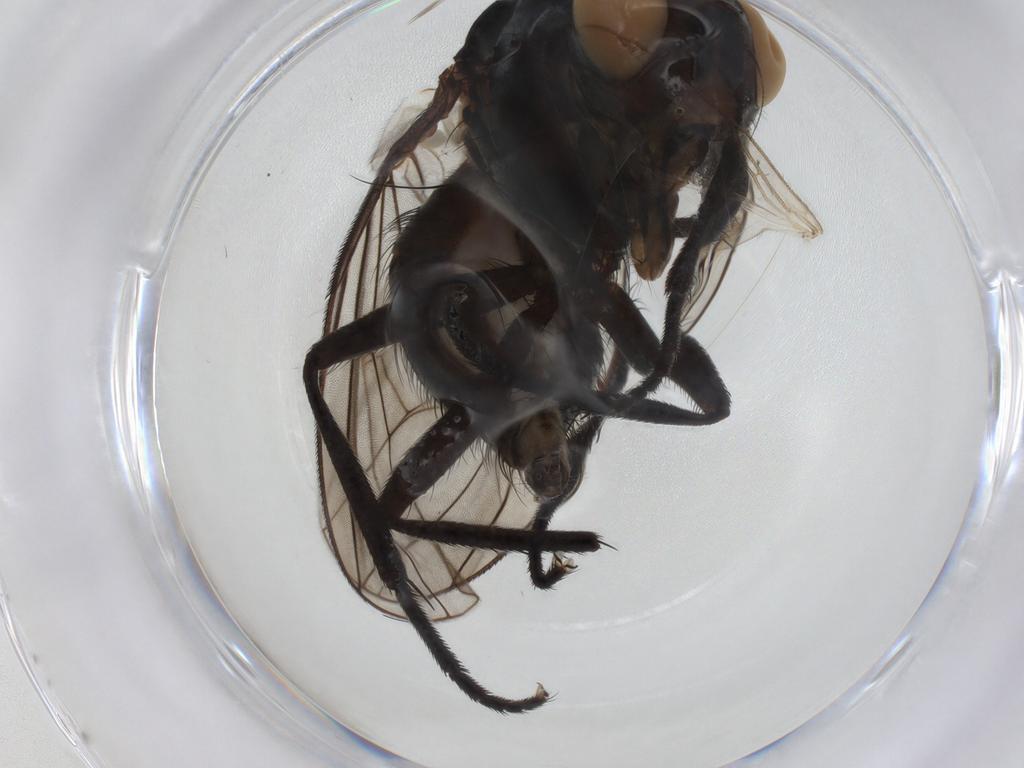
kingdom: Animalia
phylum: Arthropoda
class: Insecta
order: Diptera
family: Anthomyiidae
